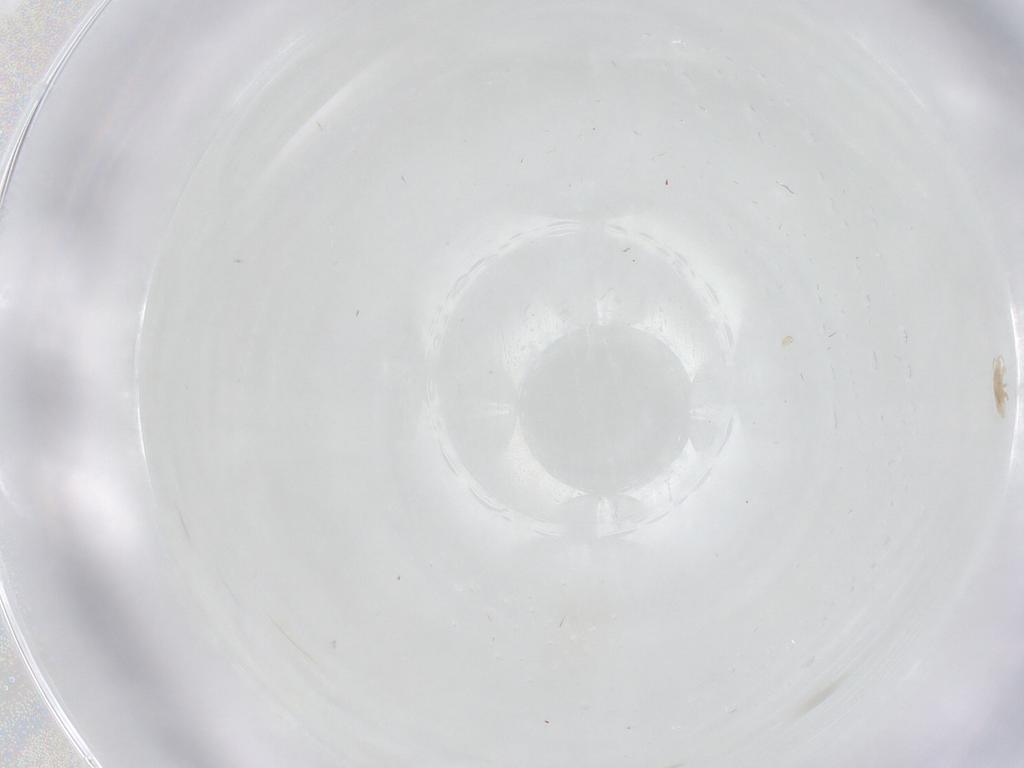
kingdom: Animalia
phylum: Arthropoda
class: Arachnida
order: Mesostigmata
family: Digamasellidae
